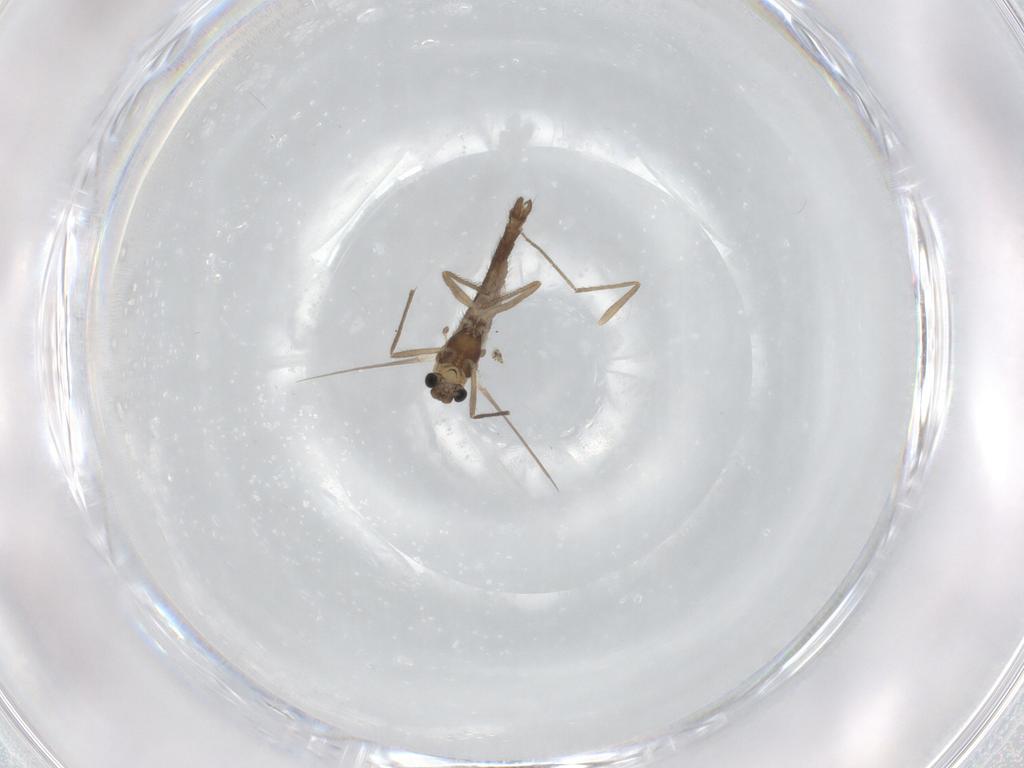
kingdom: Animalia
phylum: Arthropoda
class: Insecta
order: Diptera
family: Chironomidae
